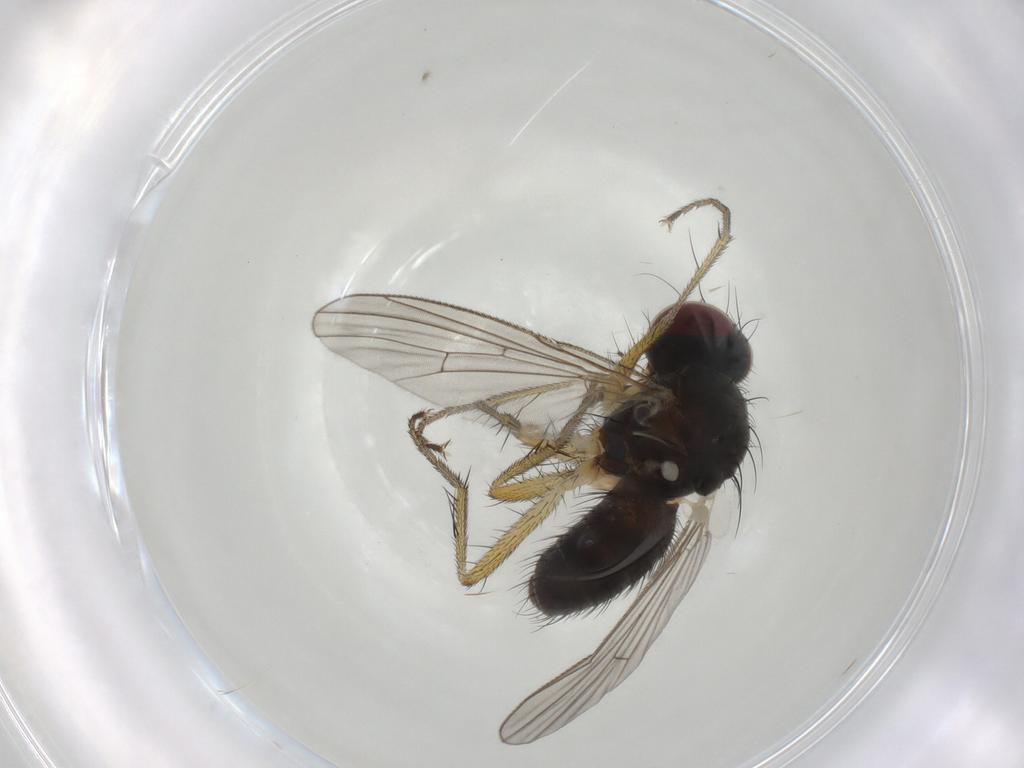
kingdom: Animalia
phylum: Arthropoda
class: Insecta
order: Diptera
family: Muscidae
